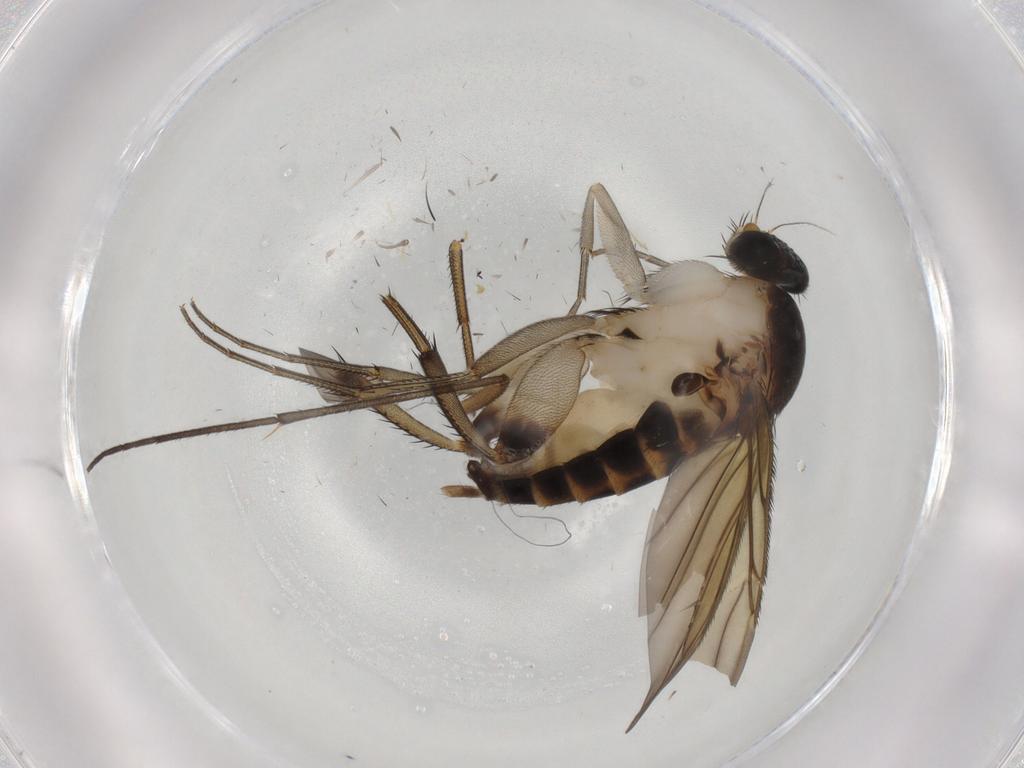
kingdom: Animalia
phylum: Arthropoda
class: Insecta
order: Diptera
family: Phoridae
